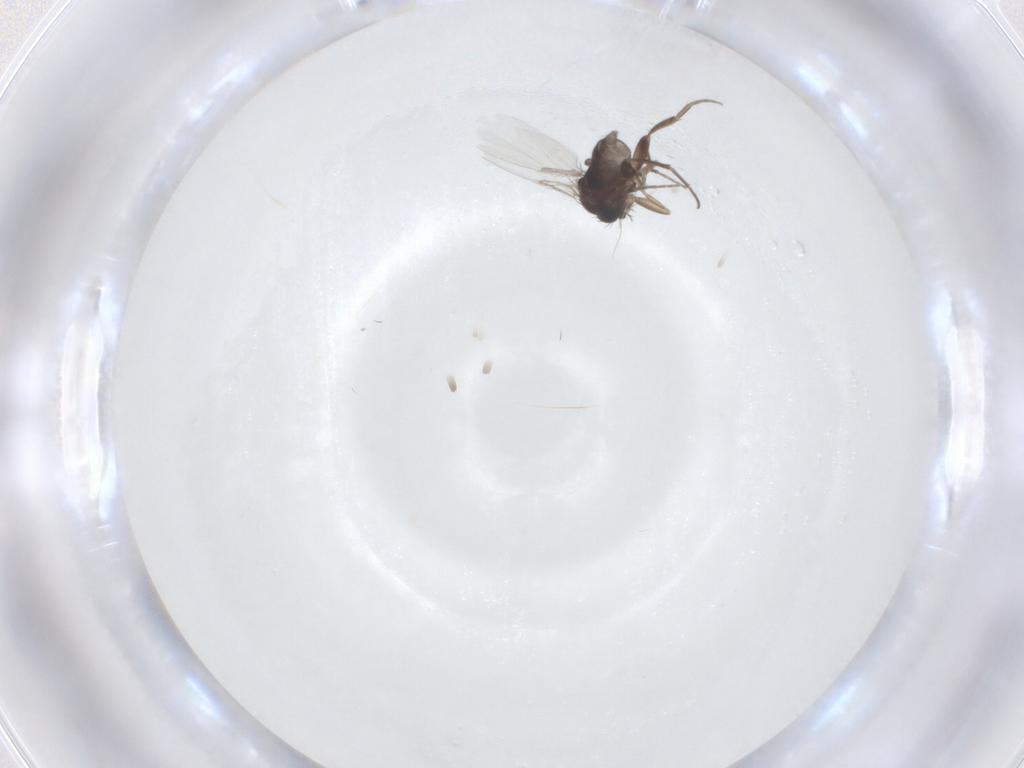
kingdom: Animalia
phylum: Arthropoda
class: Insecta
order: Diptera
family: Phoridae
